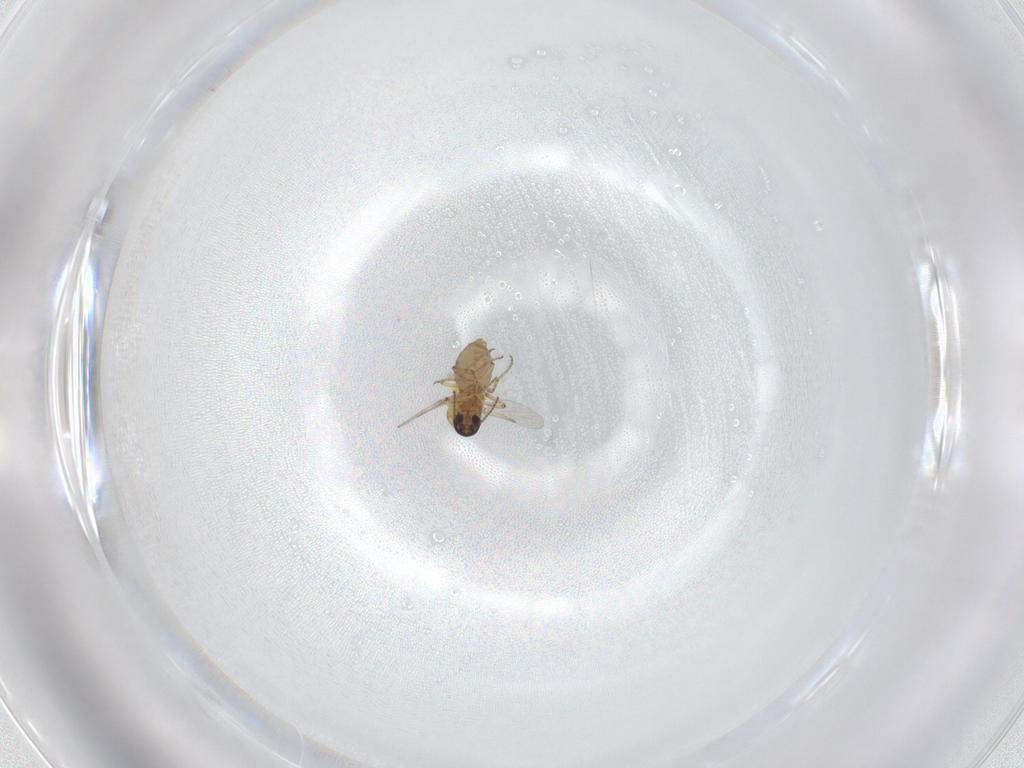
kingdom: Animalia
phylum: Arthropoda
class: Insecta
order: Diptera
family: Ceratopogonidae
